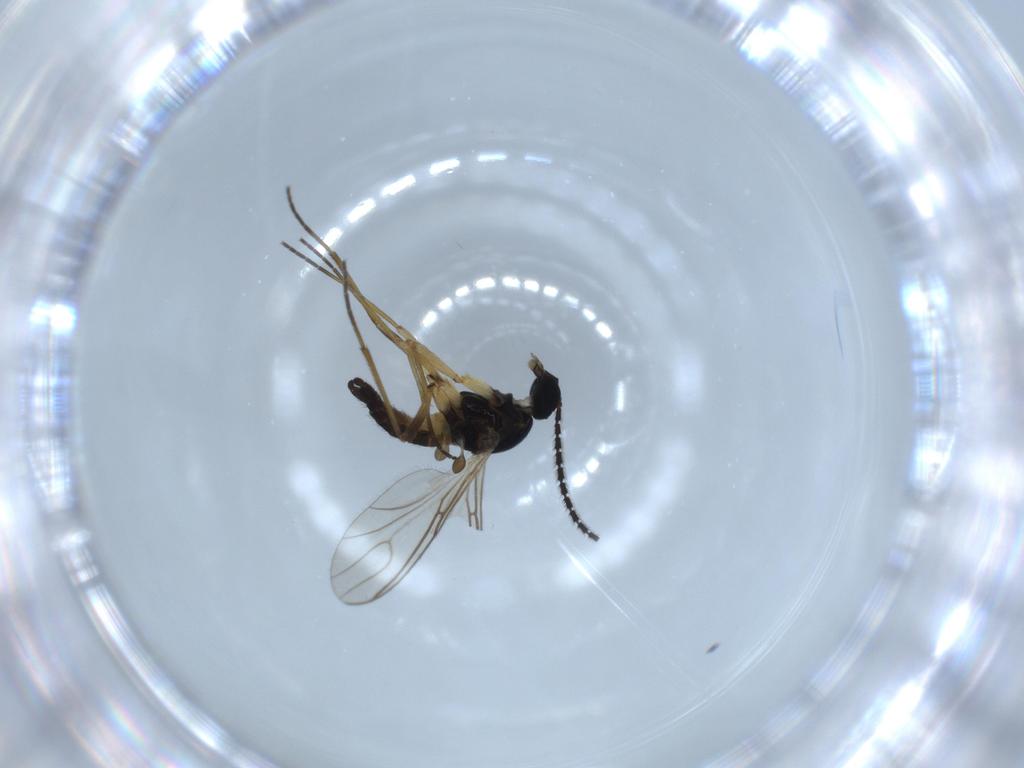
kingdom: Animalia
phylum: Arthropoda
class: Insecta
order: Diptera
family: Sciaridae
